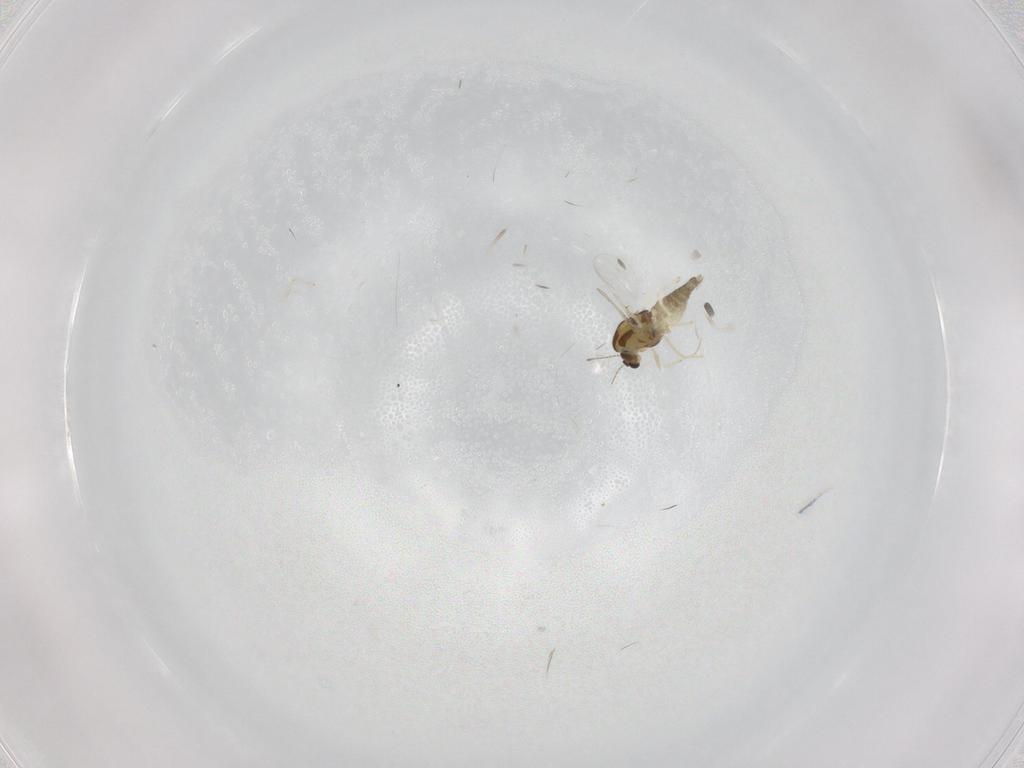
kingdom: Animalia
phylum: Arthropoda
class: Insecta
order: Diptera
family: Chironomidae
